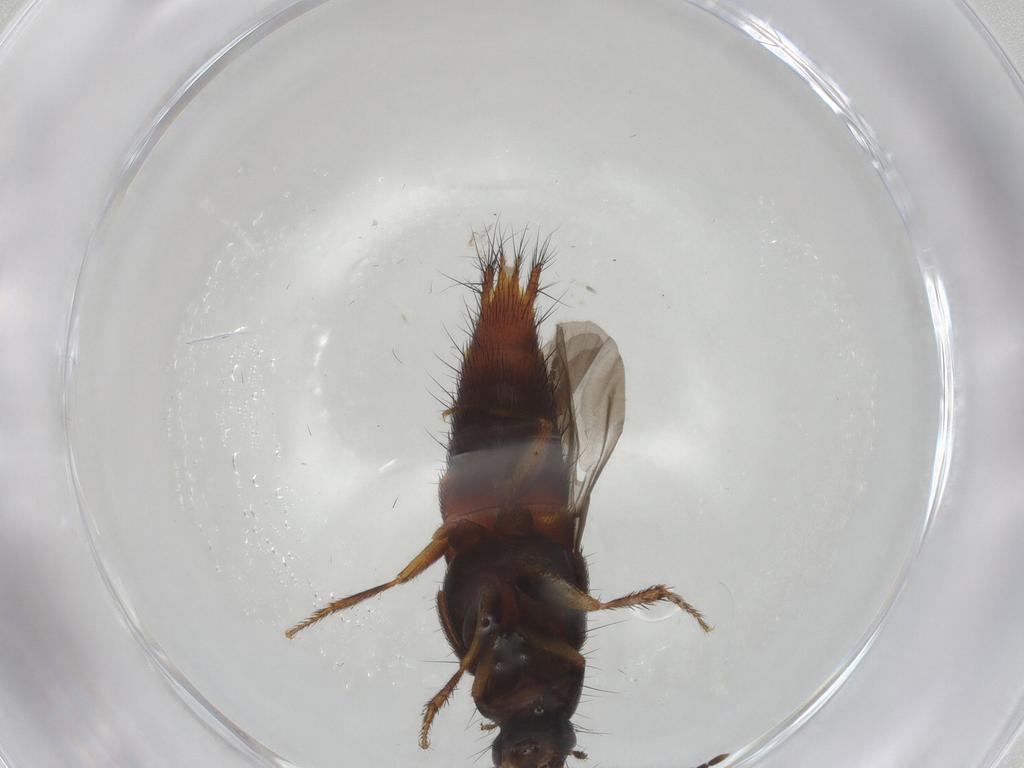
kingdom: Animalia
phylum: Arthropoda
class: Insecta
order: Coleoptera
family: Staphylinidae
